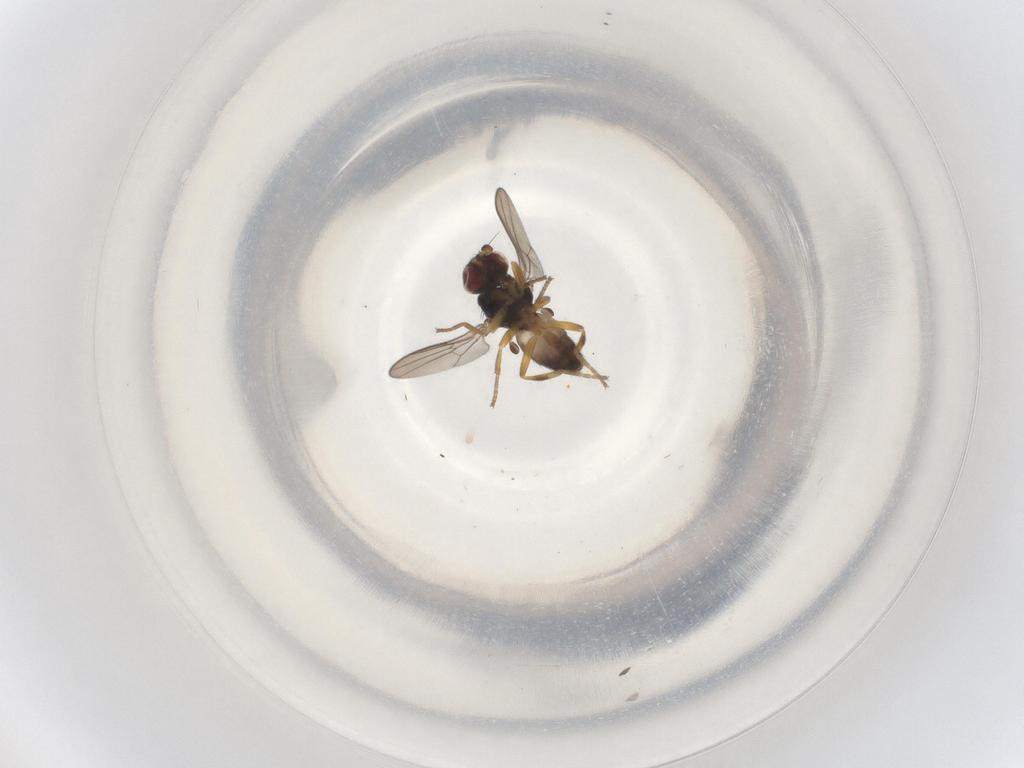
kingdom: Animalia
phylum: Arthropoda
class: Insecta
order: Diptera
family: Chloropidae
